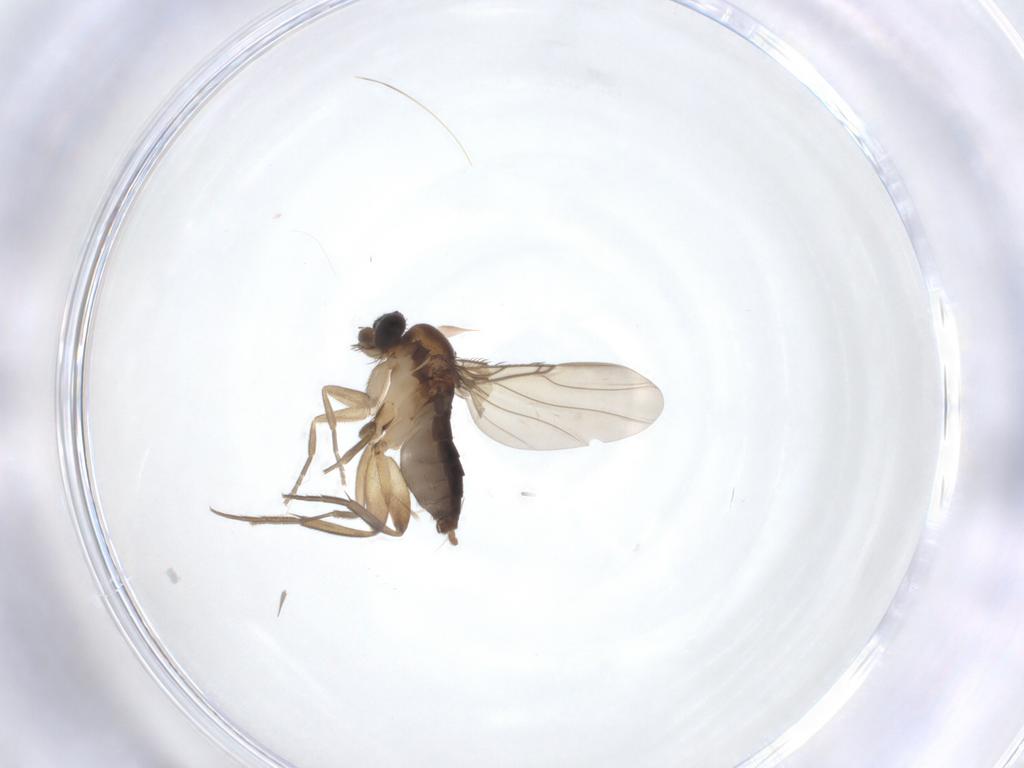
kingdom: Animalia
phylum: Arthropoda
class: Insecta
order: Diptera
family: Phoridae
